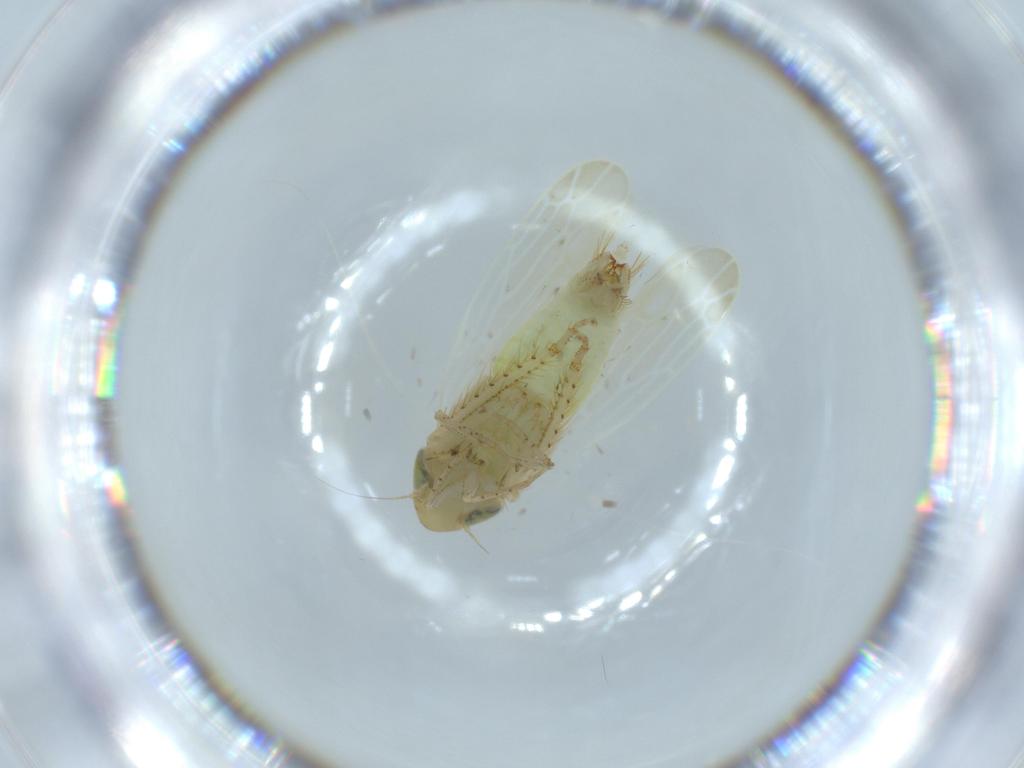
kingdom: Animalia
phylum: Arthropoda
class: Insecta
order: Hemiptera
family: Cicadellidae
